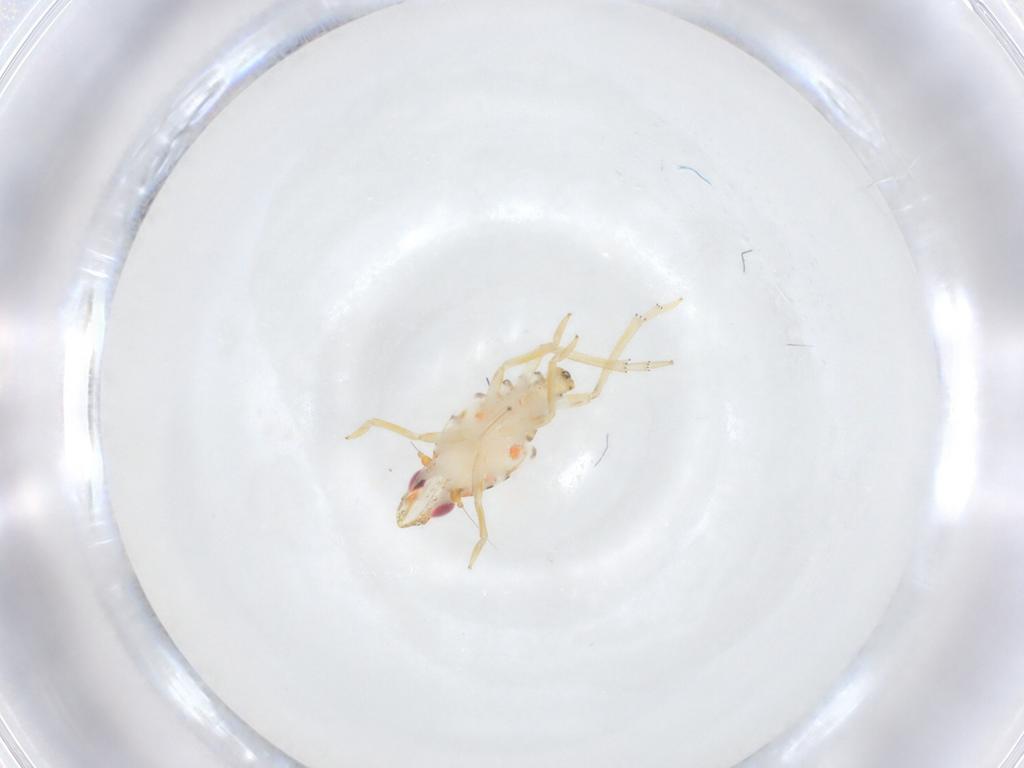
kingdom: Animalia
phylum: Arthropoda
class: Insecta
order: Hemiptera
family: Tropiduchidae
